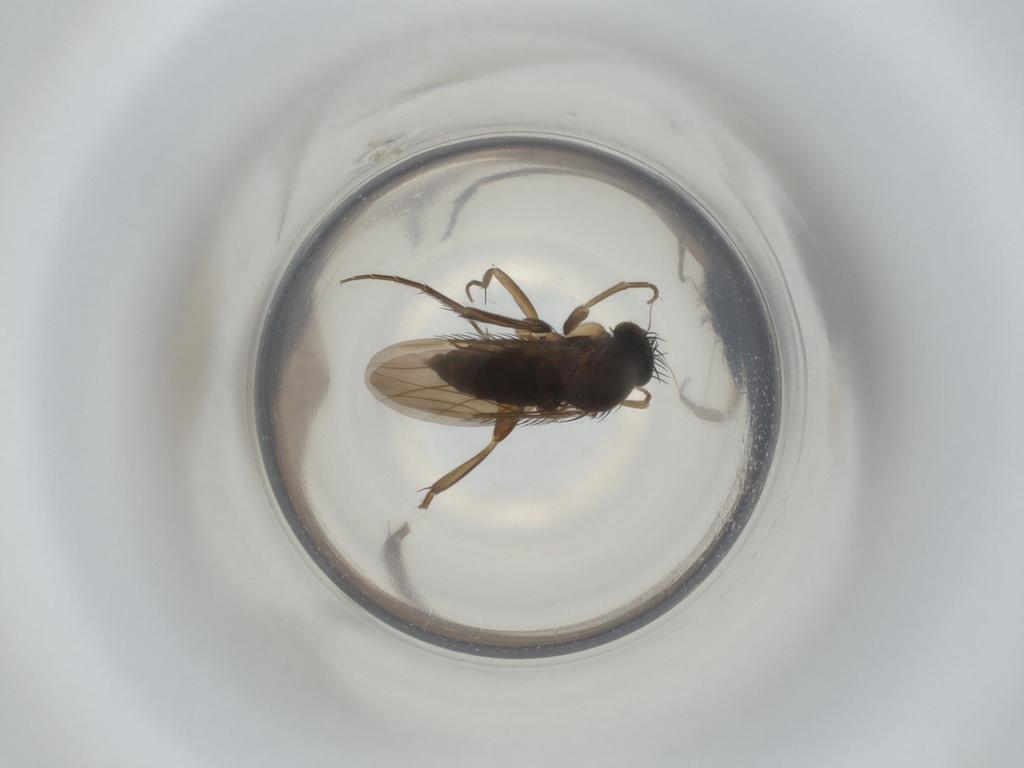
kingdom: Animalia
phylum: Arthropoda
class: Insecta
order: Diptera
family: Phoridae
